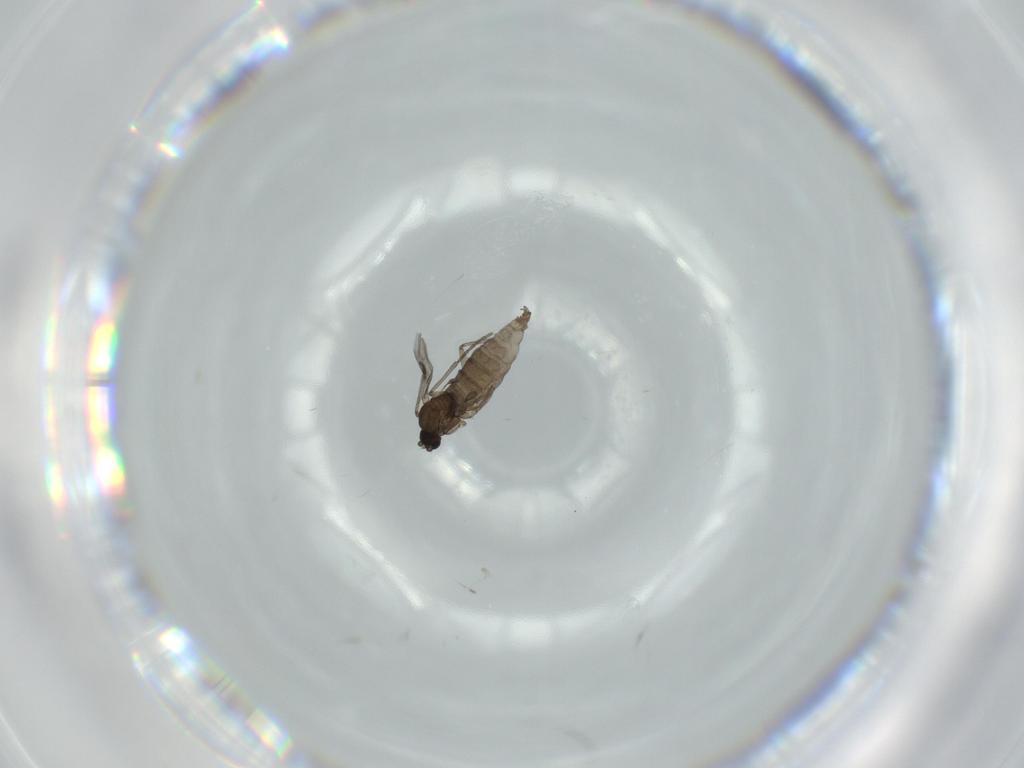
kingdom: Animalia
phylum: Arthropoda
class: Insecta
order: Diptera
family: Sciaridae
